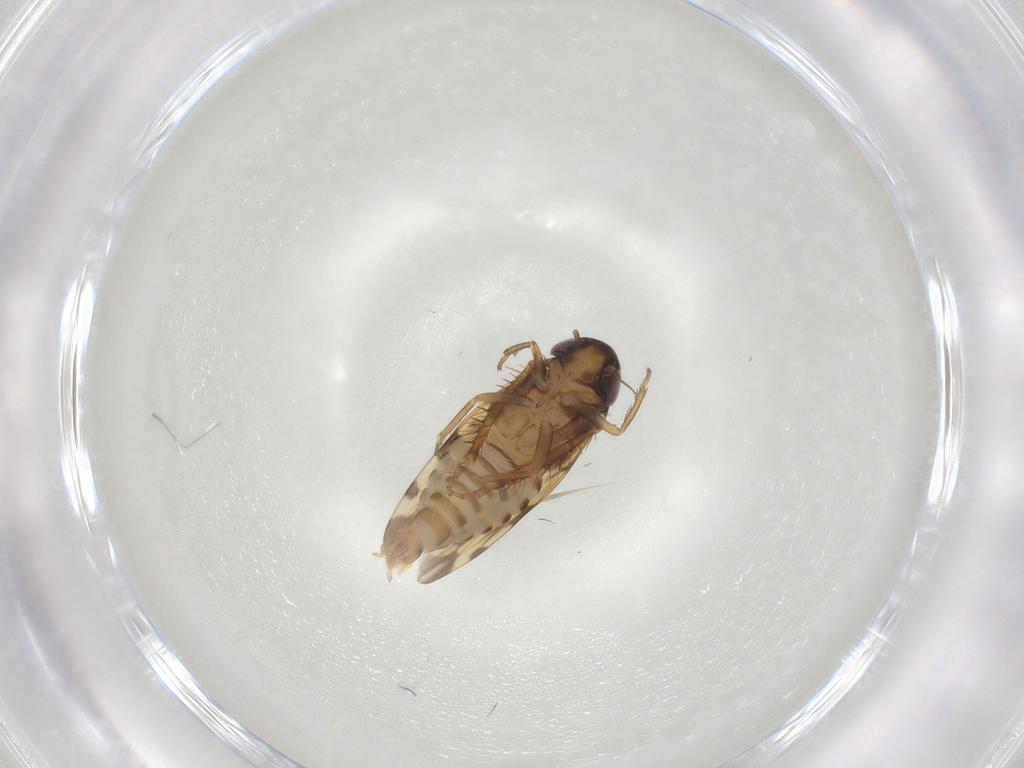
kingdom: Animalia
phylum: Arthropoda
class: Insecta
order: Hemiptera
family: Cicadellidae
